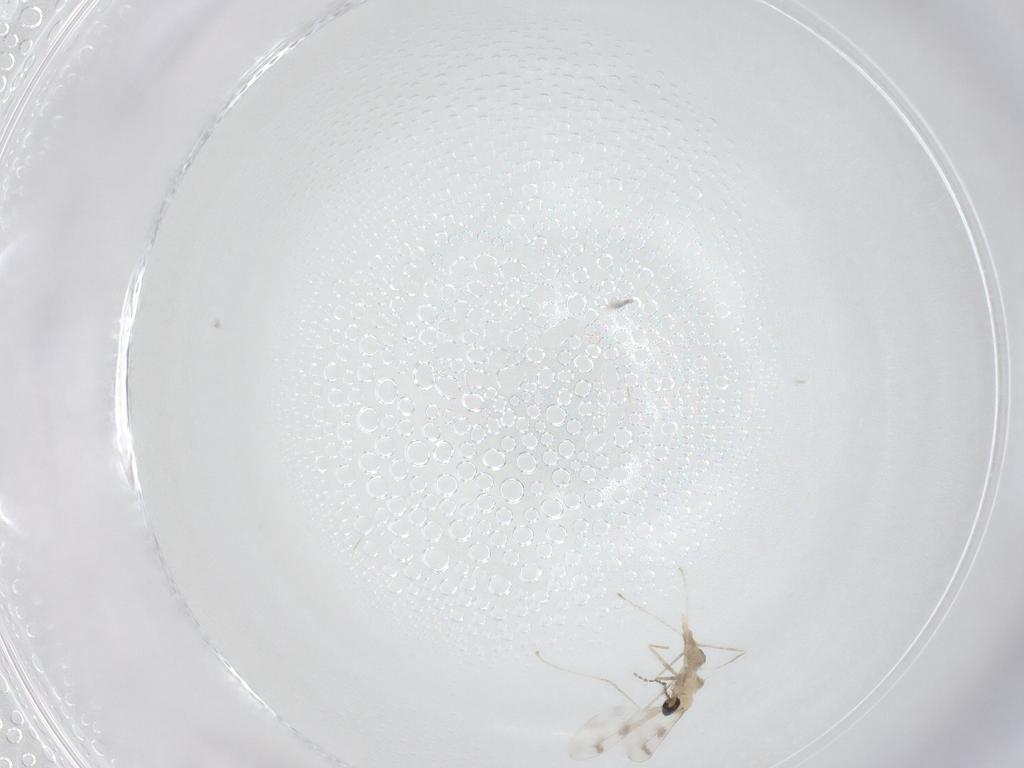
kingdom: Animalia
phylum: Arthropoda
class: Insecta
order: Diptera
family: Cecidomyiidae
